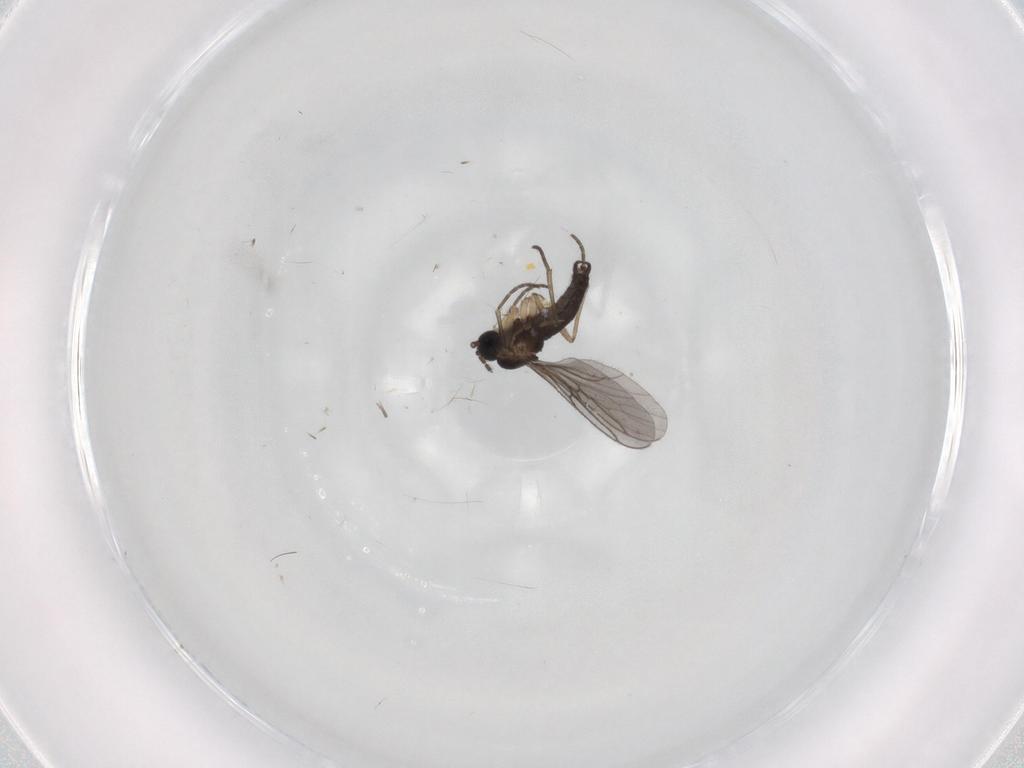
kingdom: Animalia
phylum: Arthropoda
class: Insecta
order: Diptera
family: Sciaridae
